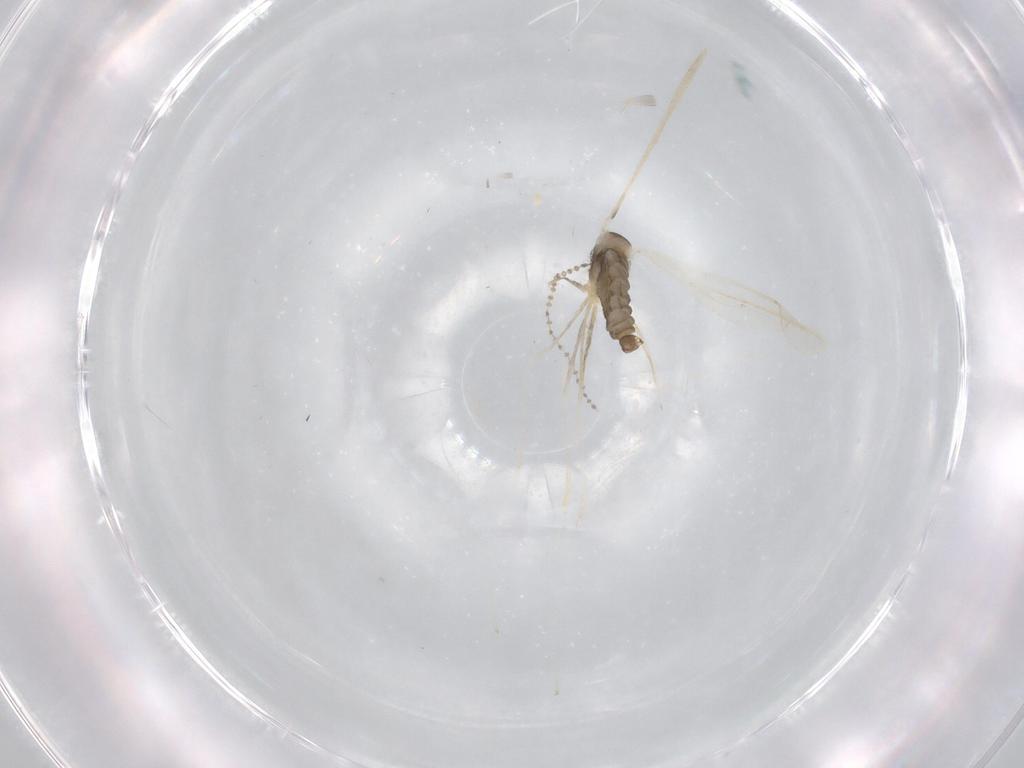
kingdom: Animalia
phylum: Arthropoda
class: Insecta
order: Diptera
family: Cecidomyiidae
